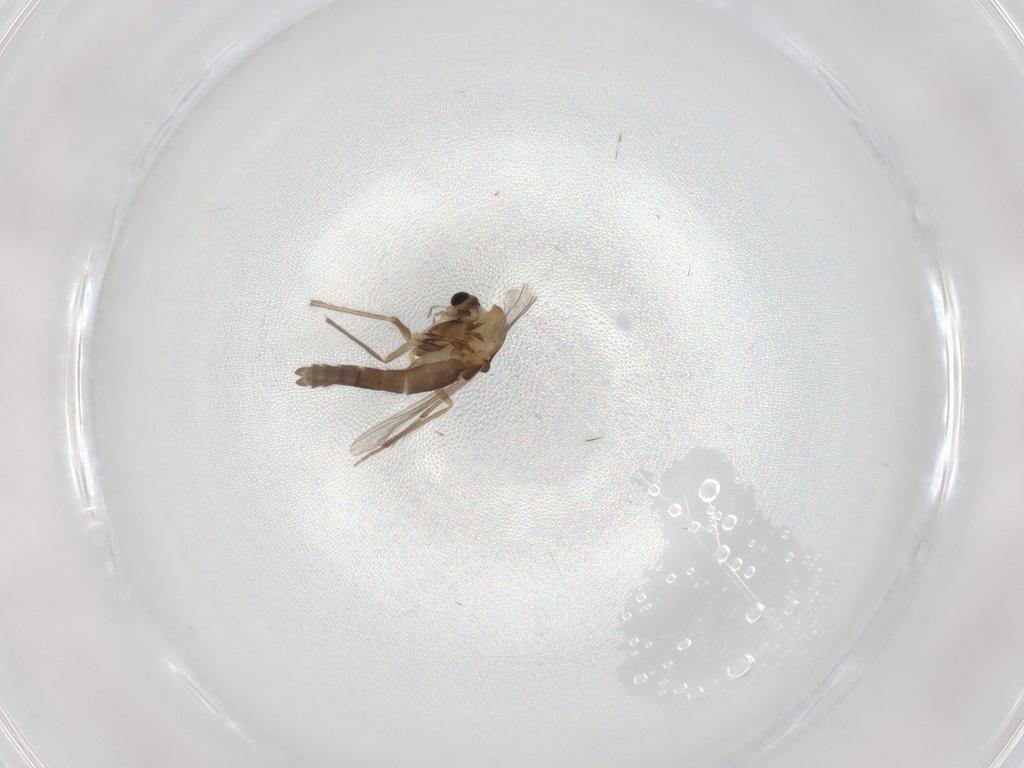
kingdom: Animalia
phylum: Arthropoda
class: Insecta
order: Diptera
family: Chironomidae
